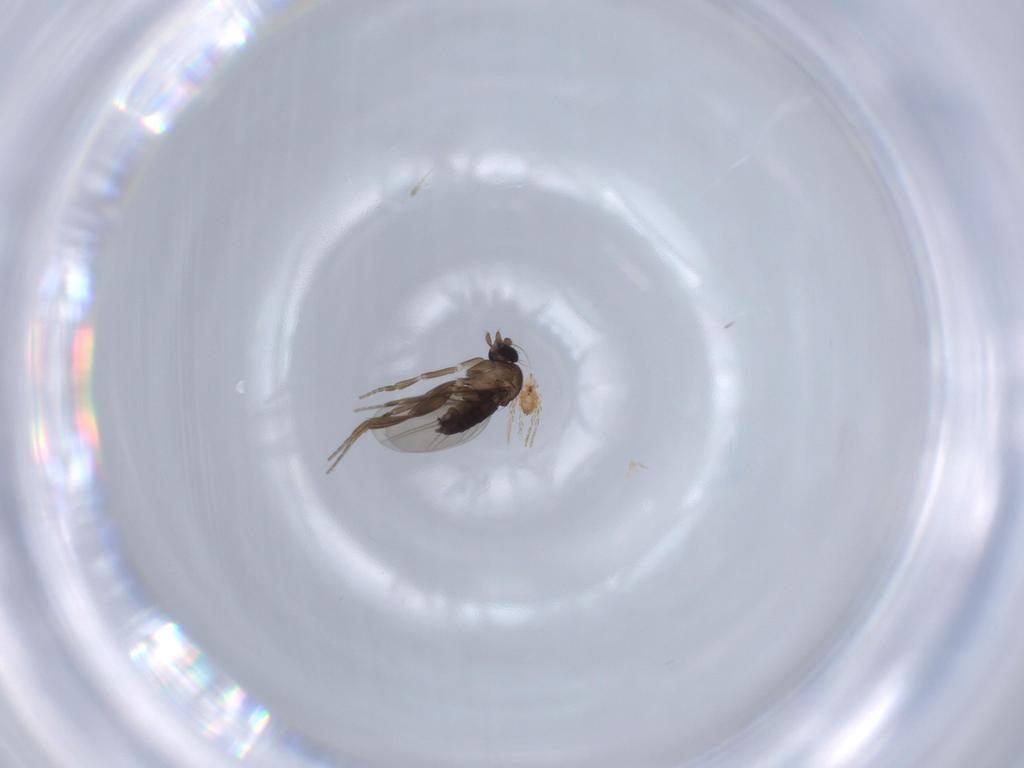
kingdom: Animalia
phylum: Arthropoda
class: Insecta
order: Diptera
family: Phoridae
